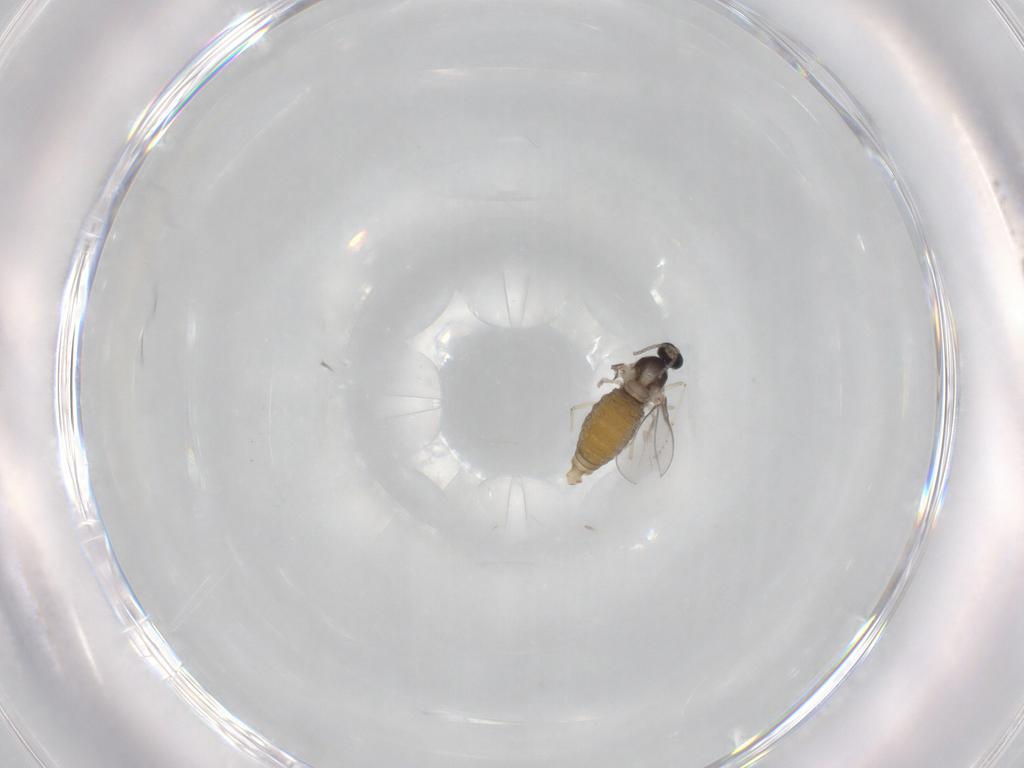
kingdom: Animalia
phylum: Arthropoda
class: Insecta
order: Diptera
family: Cecidomyiidae
